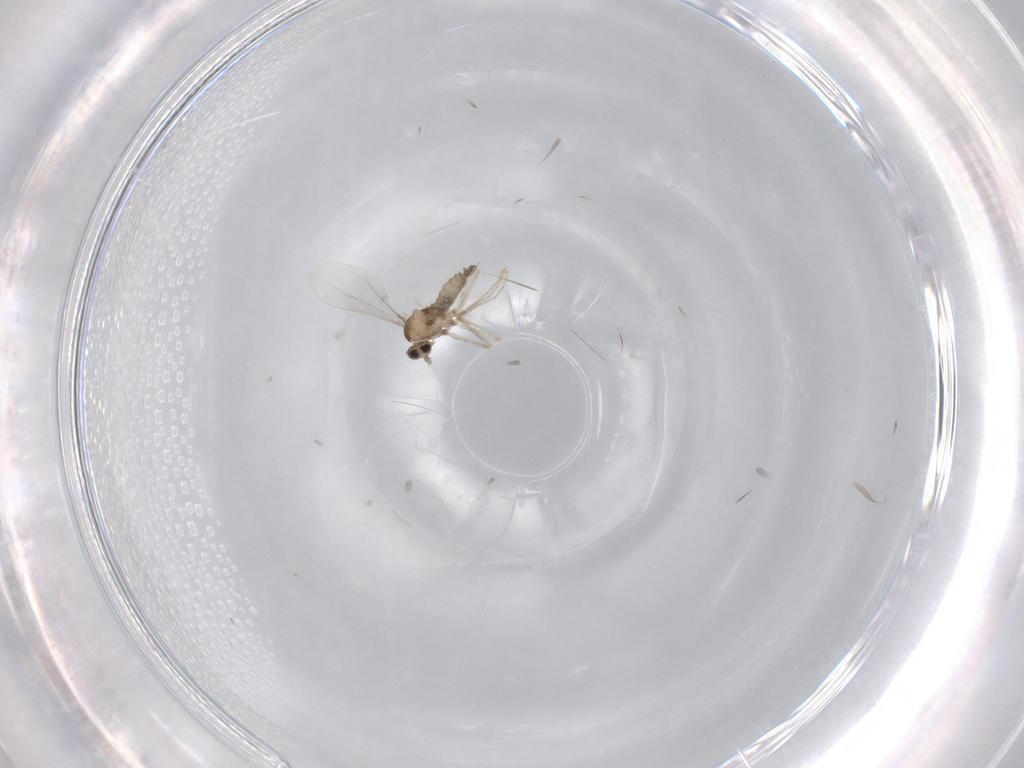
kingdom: Animalia
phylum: Arthropoda
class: Insecta
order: Diptera
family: Cecidomyiidae
